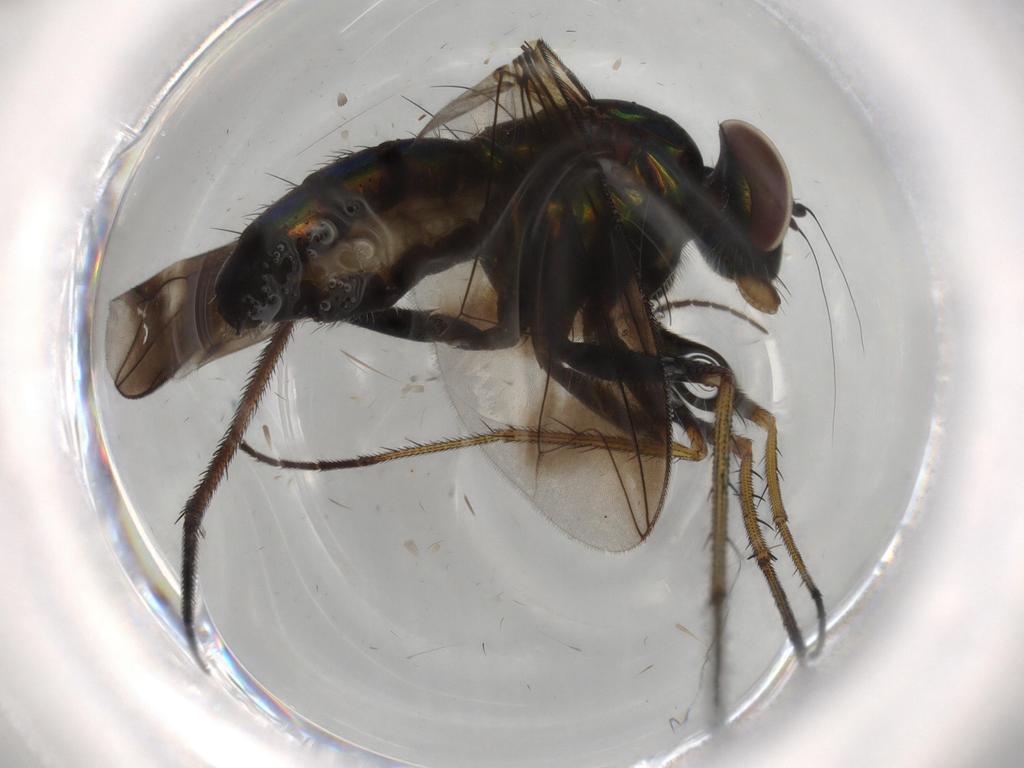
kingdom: Animalia
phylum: Arthropoda
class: Insecta
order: Diptera
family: Dolichopodidae
